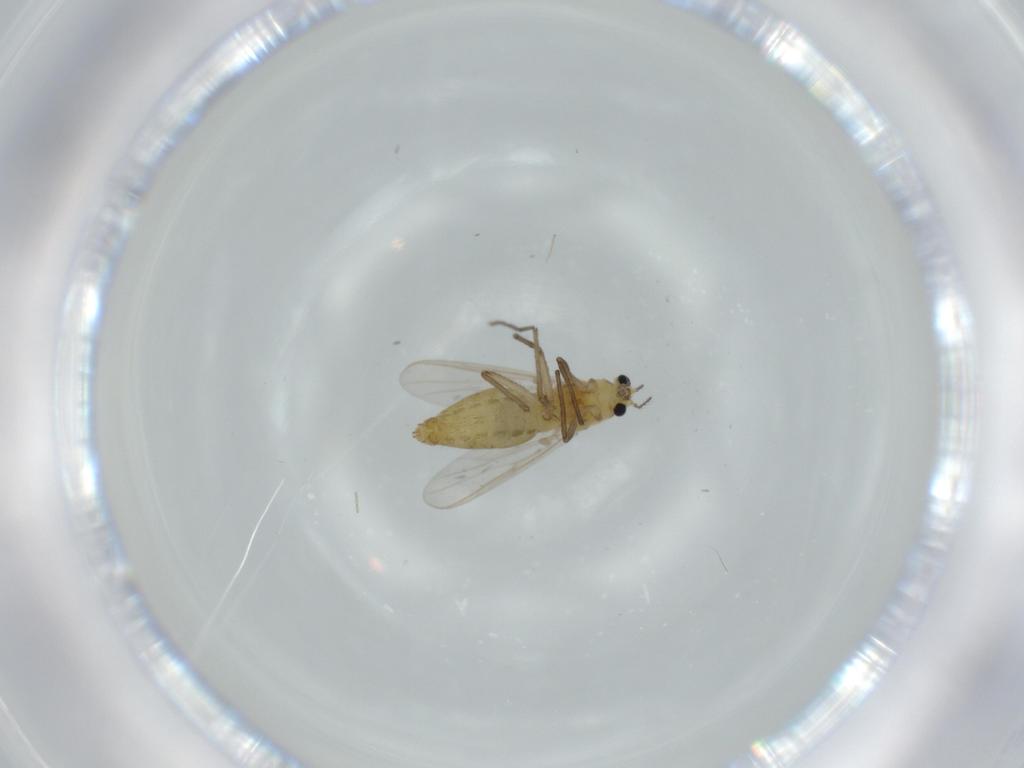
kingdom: Animalia
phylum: Arthropoda
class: Insecta
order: Diptera
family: Chironomidae
